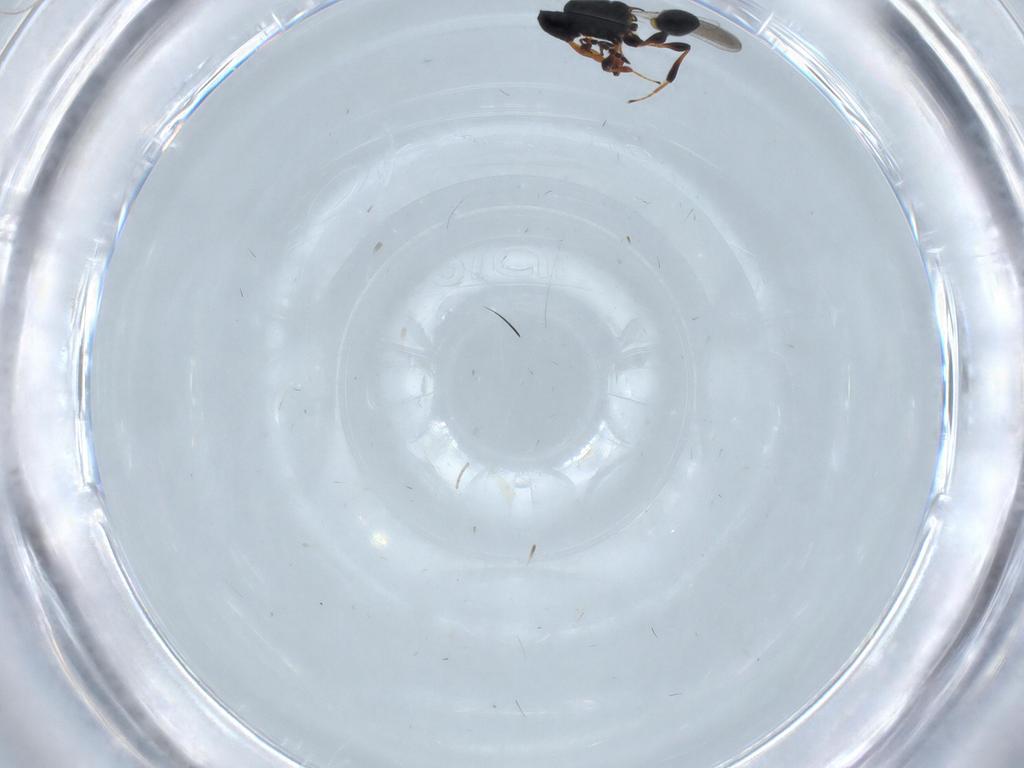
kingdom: Animalia
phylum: Arthropoda
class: Insecta
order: Hymenoptera
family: Platygastridae
